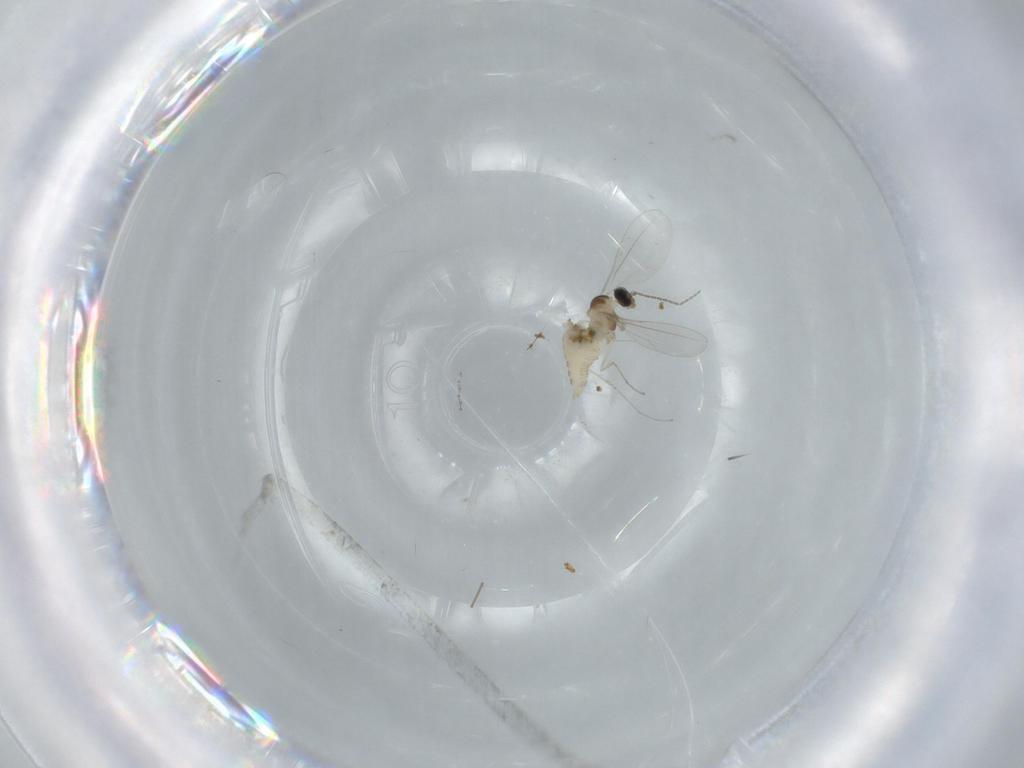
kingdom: Animalia
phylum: Arthropoda
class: Insecta
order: Diptera
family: Cecidomyiidae
